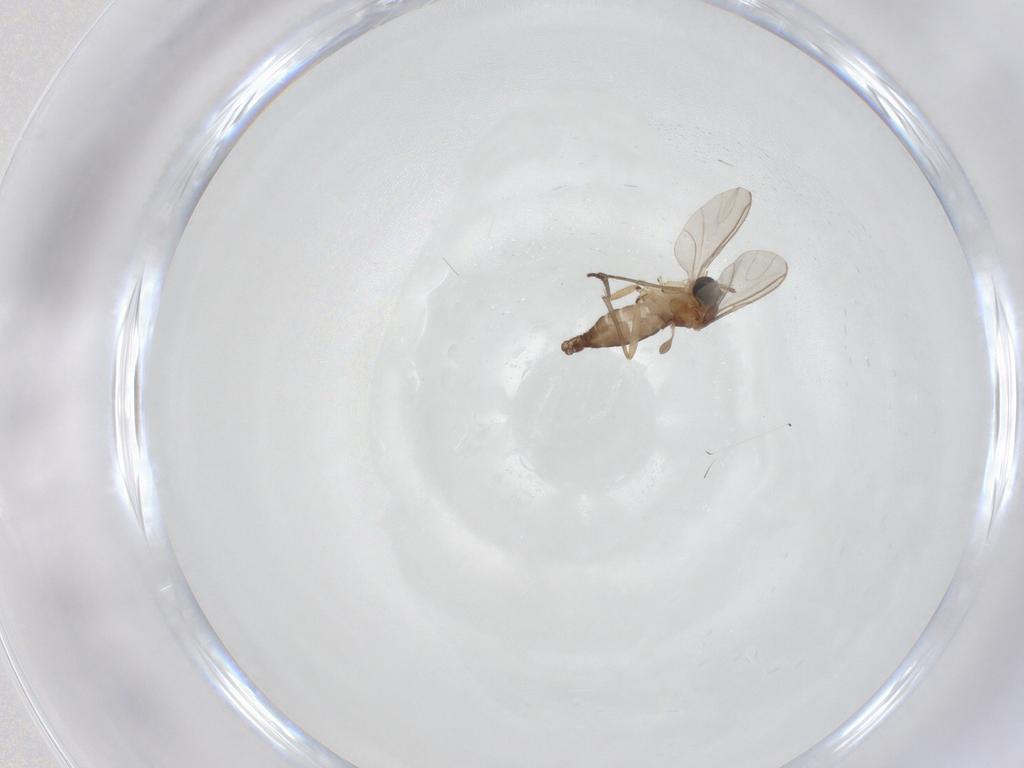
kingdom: Animalia
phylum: Arthropoda
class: Insecta
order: Diptera
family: Sciaridae
